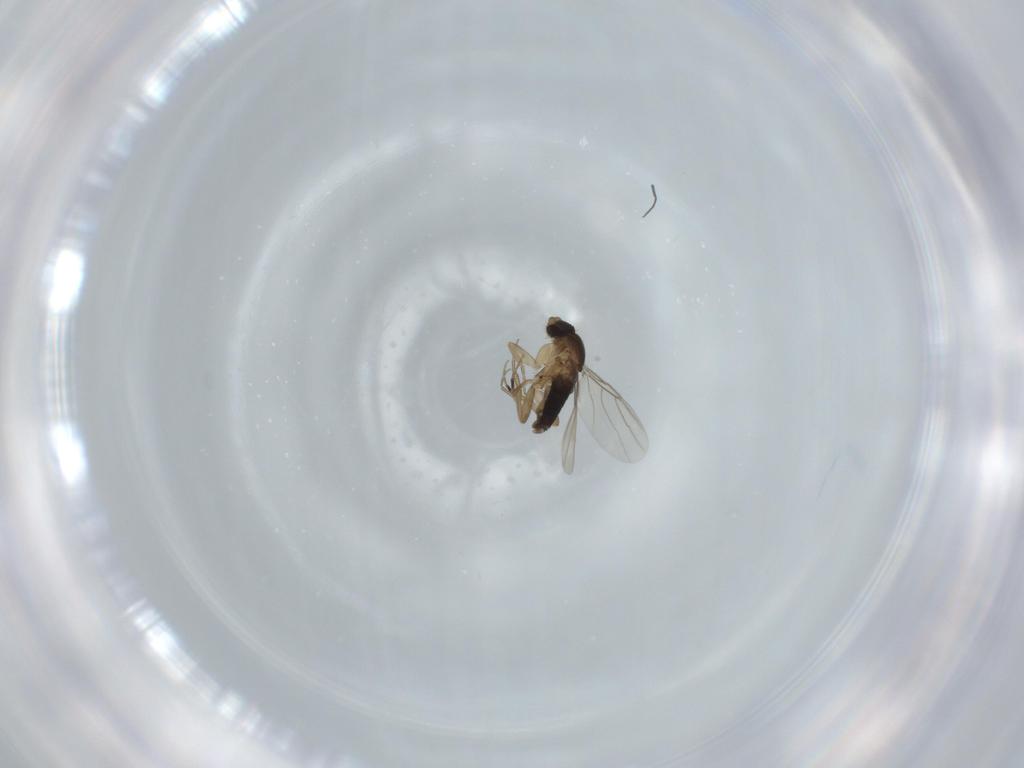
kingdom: Animalia
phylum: Arthropoda
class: Insecta
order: Diptera
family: Phoridae
